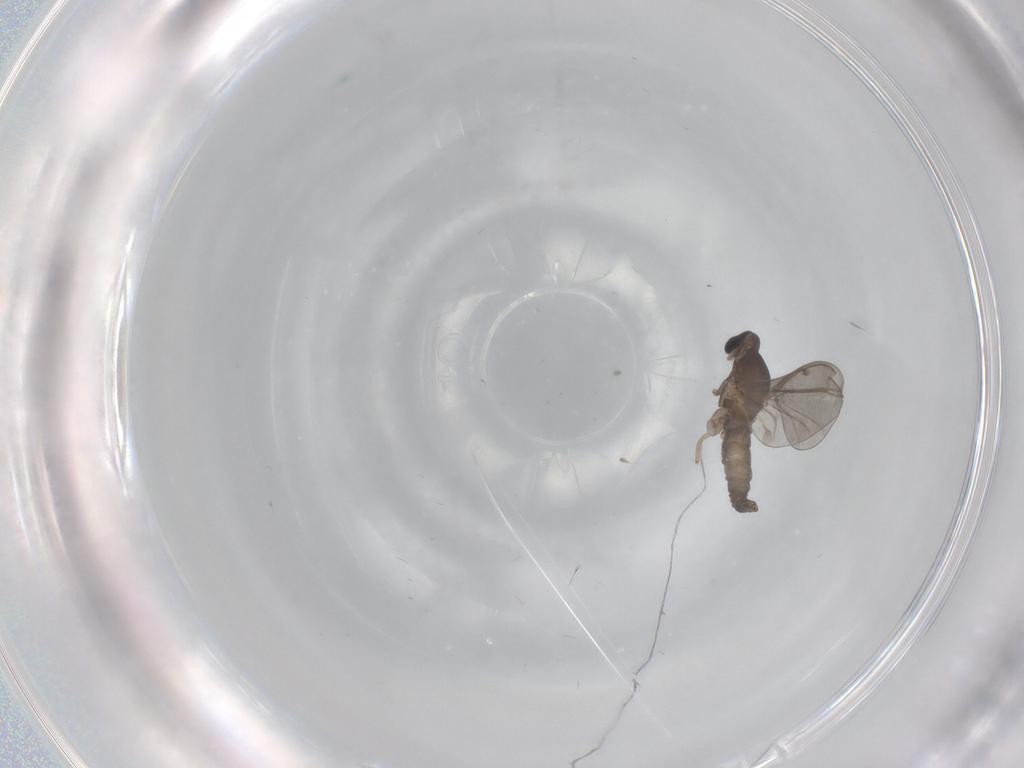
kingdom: Animalia
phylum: Arthropoda
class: Insecta
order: Diptera
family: Cecidomyiidae
